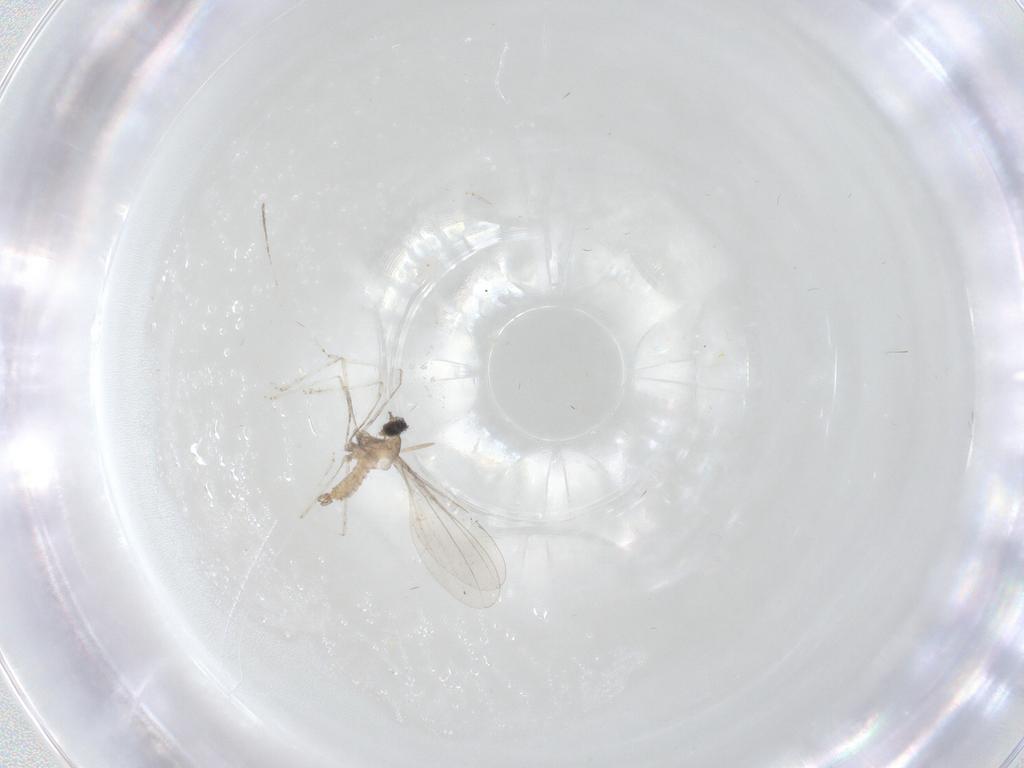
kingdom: Animalia
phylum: Arthropoda
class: Insecta
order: Diptera
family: Cecidomyiidae
